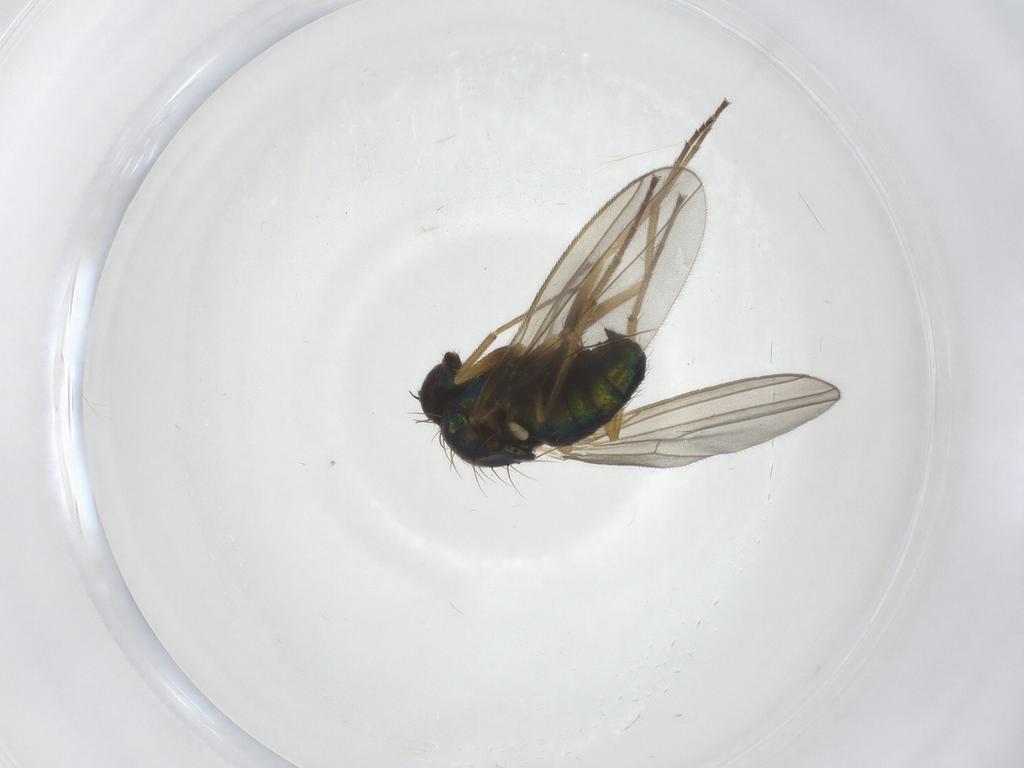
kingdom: Animalia
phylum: Arthropoda
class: Insecta
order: Diptera
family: Dolichopodidae
